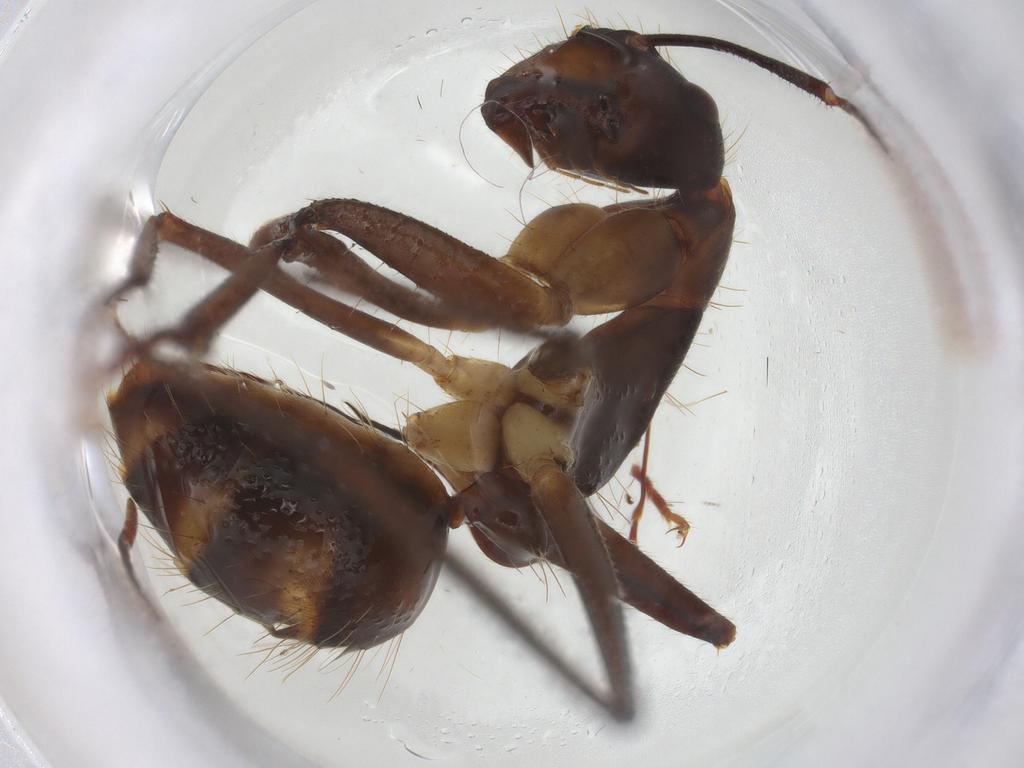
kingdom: Animalia
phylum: Arthropoda
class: Insecta
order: Hymenoptera
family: Formicidae
